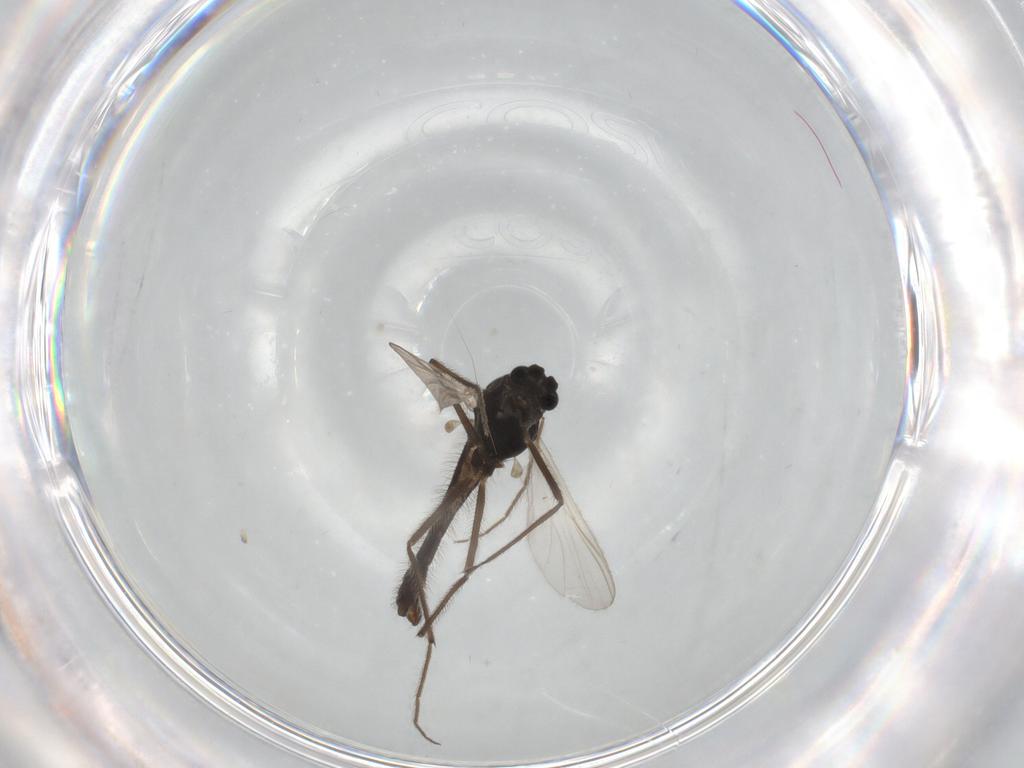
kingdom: Animalia
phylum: Arthropoda
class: Insecta
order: Diptera
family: Chironomidae
